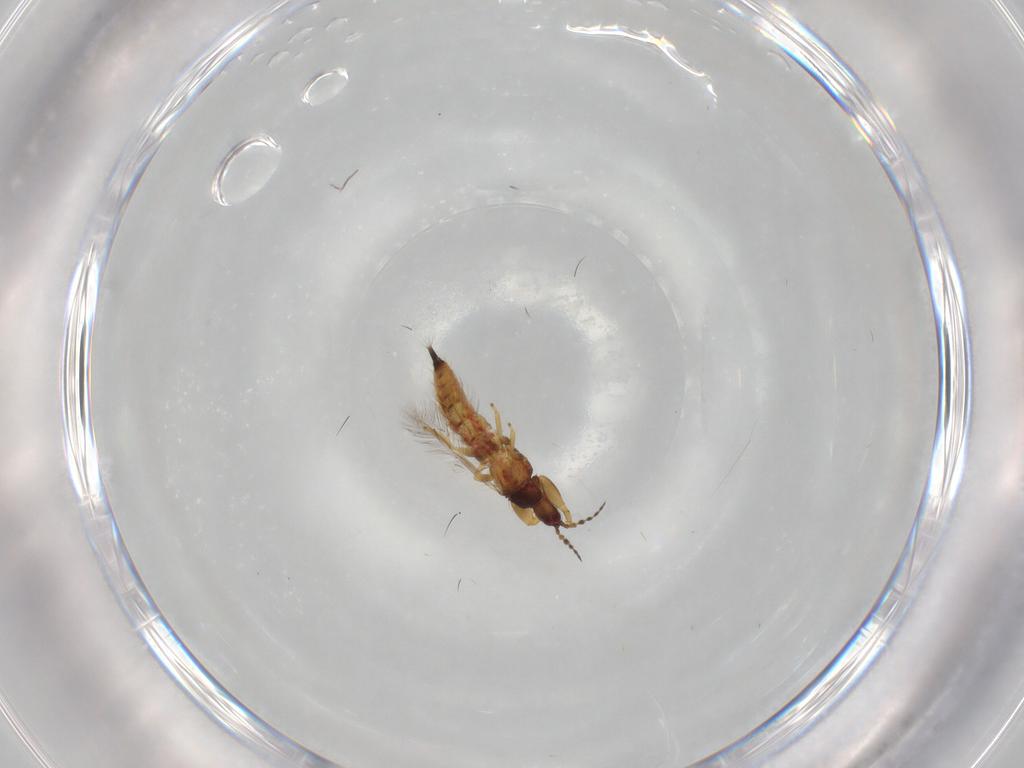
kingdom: Animalia
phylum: Arthropoda
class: Insecta
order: Thysanoptera
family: Phlaeothripidae
